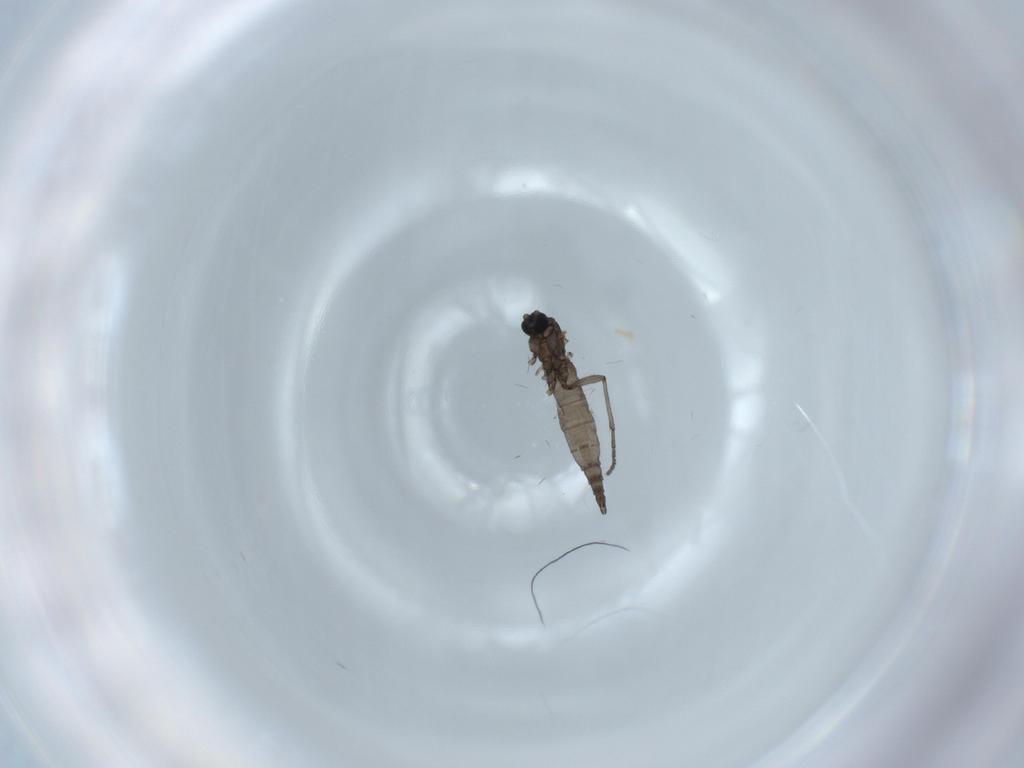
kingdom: Animalia
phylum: Arthropoda
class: Insecta
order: Diptera
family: Sciaridae
